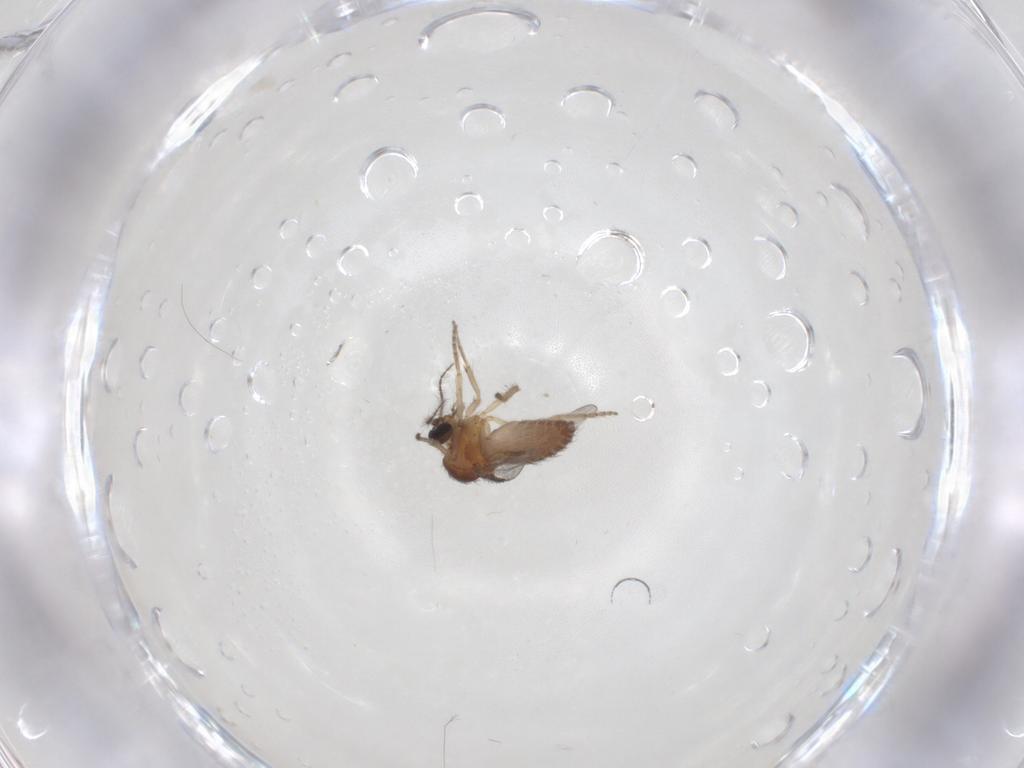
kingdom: Animalia
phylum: Arthropoda
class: Insecta
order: Diptera
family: Ceratopogonidae
